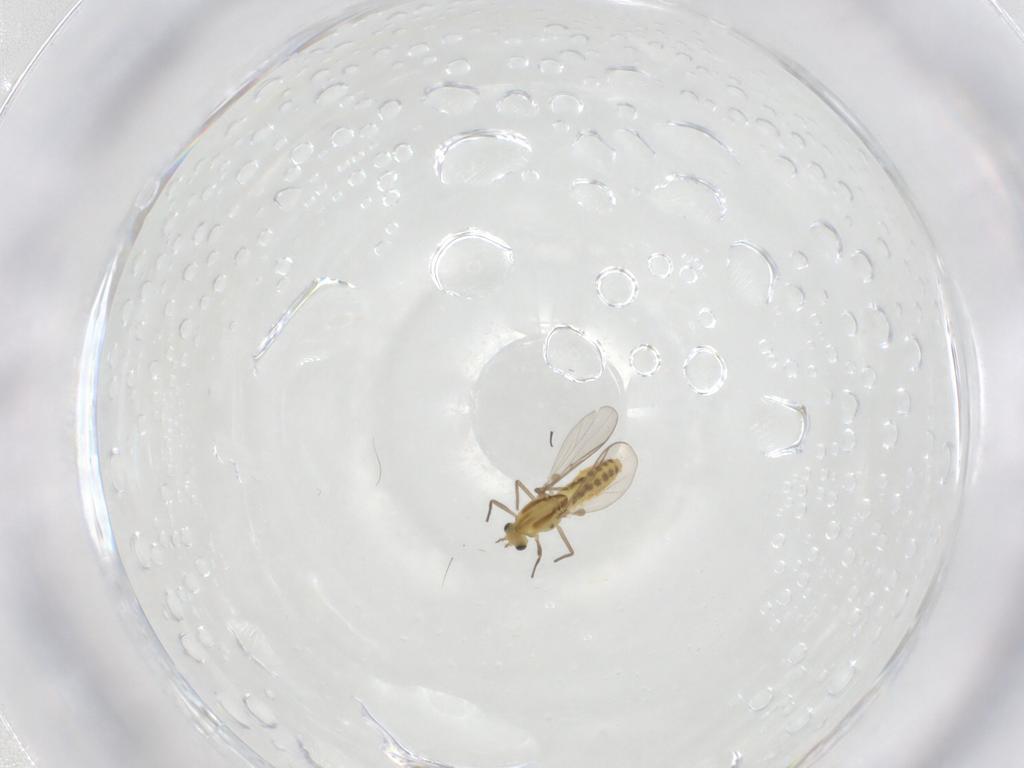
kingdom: Animalia
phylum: Arthropoda
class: Insecta
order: Diptera
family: Chironomidae
